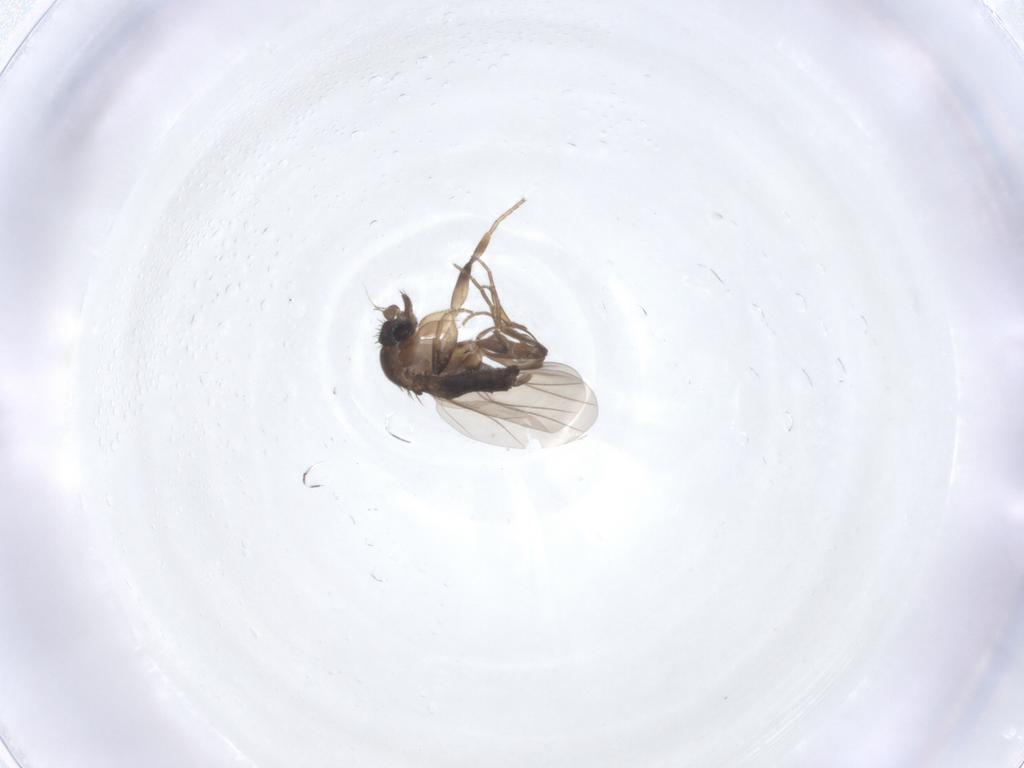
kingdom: Animalia
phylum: Arthropoda
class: Insecta
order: Diptera
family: Phoridae
